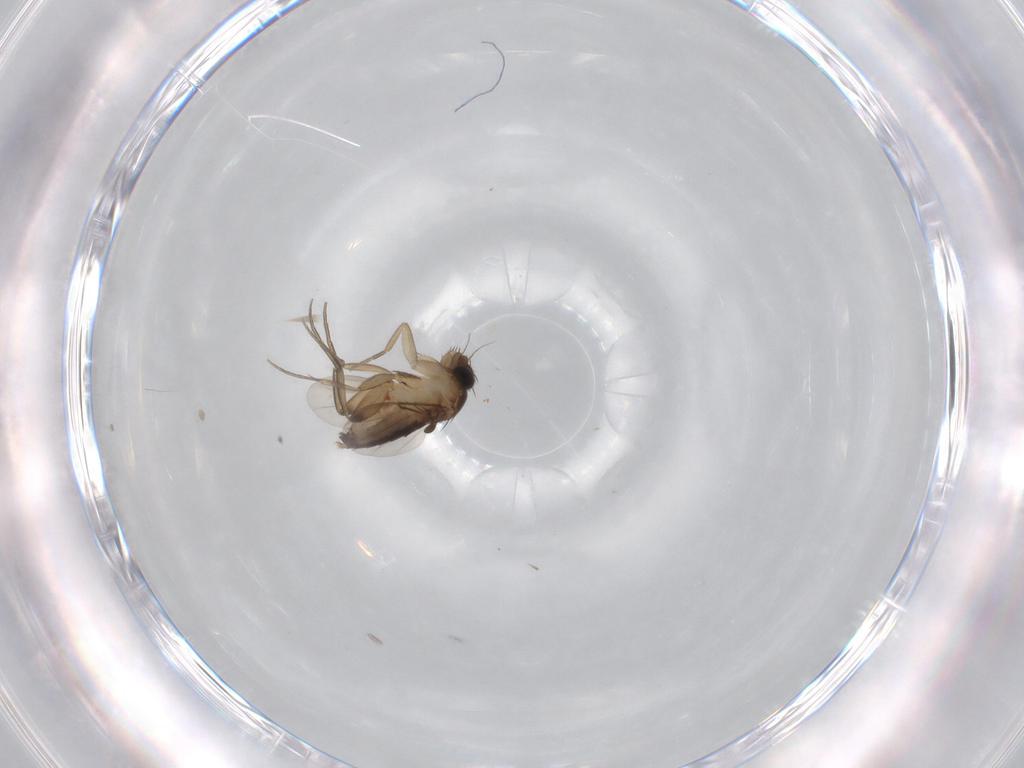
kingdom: Animalia
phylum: Arthropoda
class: Insecta
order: Diptera
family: Phoridae
